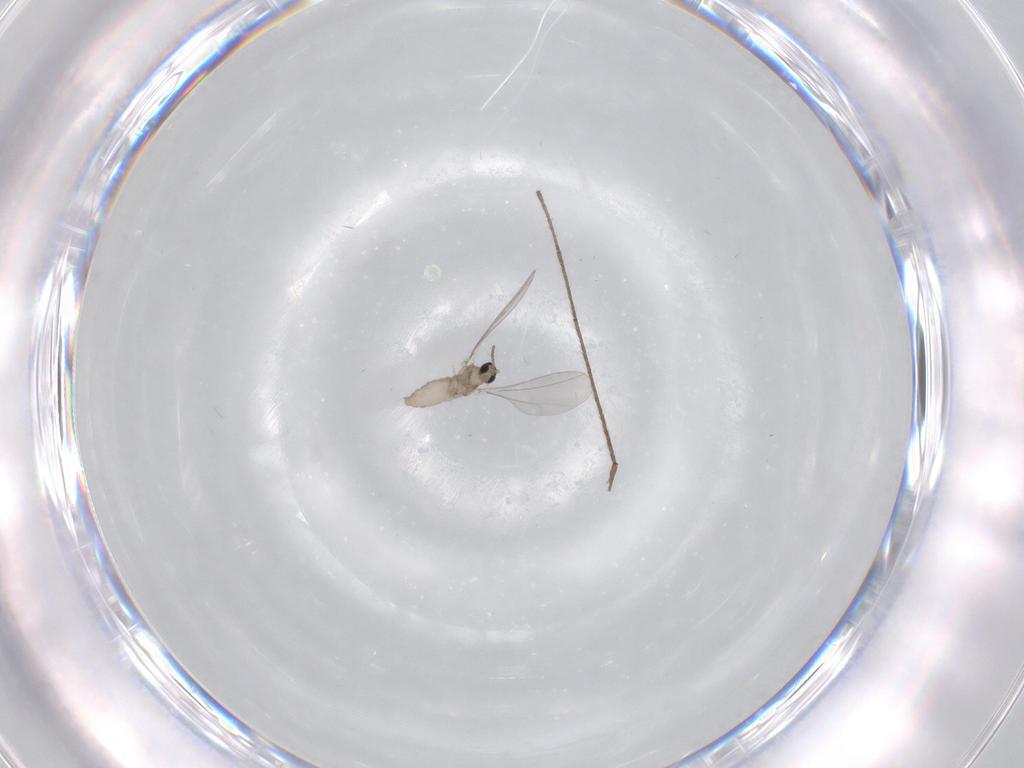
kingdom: Animalia
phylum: Arthropoda
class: Insecta
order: Diptera
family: Limoniidae
